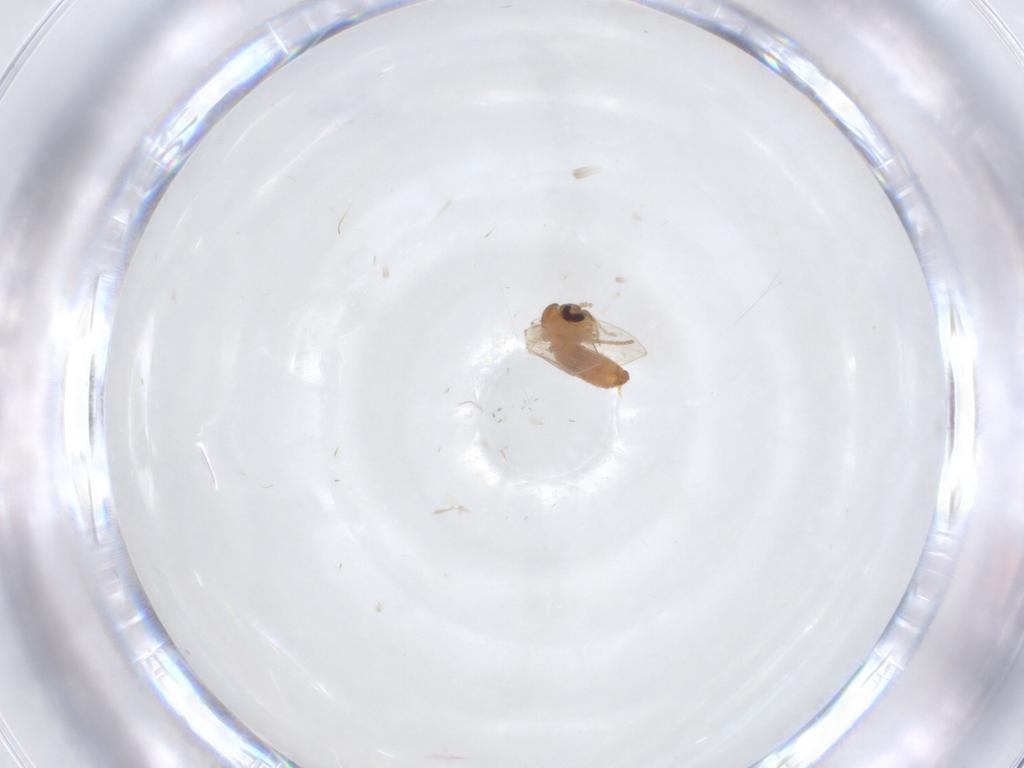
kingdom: Animalia
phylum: Arthropoda
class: Insecta
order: Diptera
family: Psychodidae
